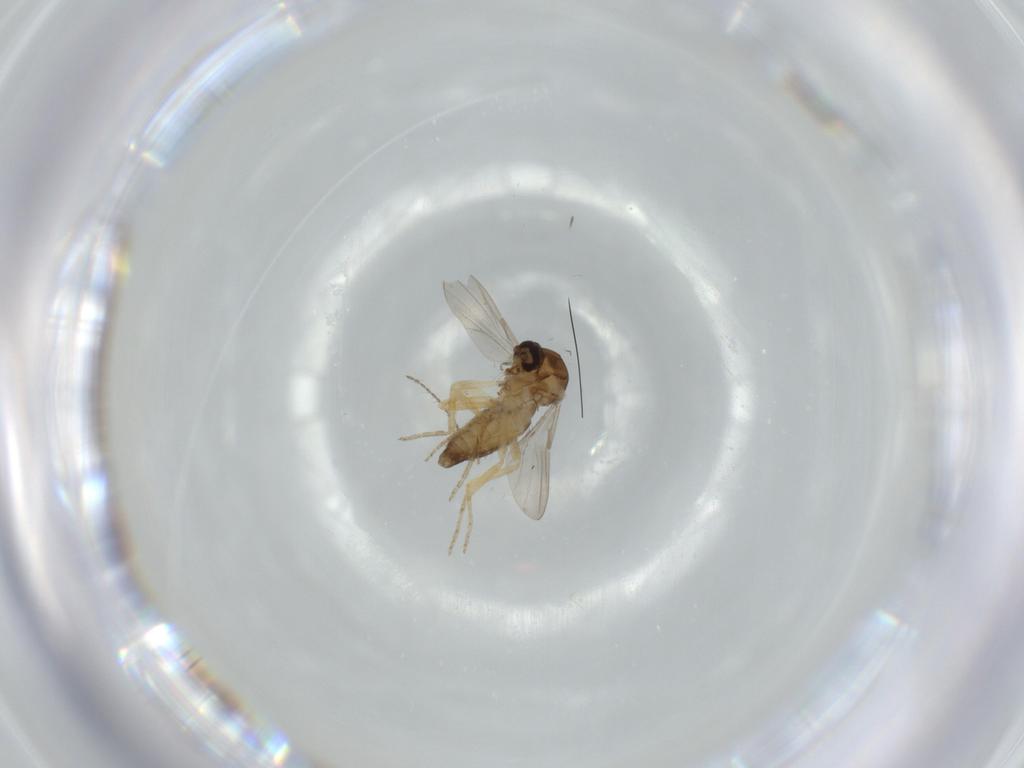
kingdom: Animalia
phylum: Arthropoda
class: Insecta
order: Diptera
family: Ceratopogonidae
